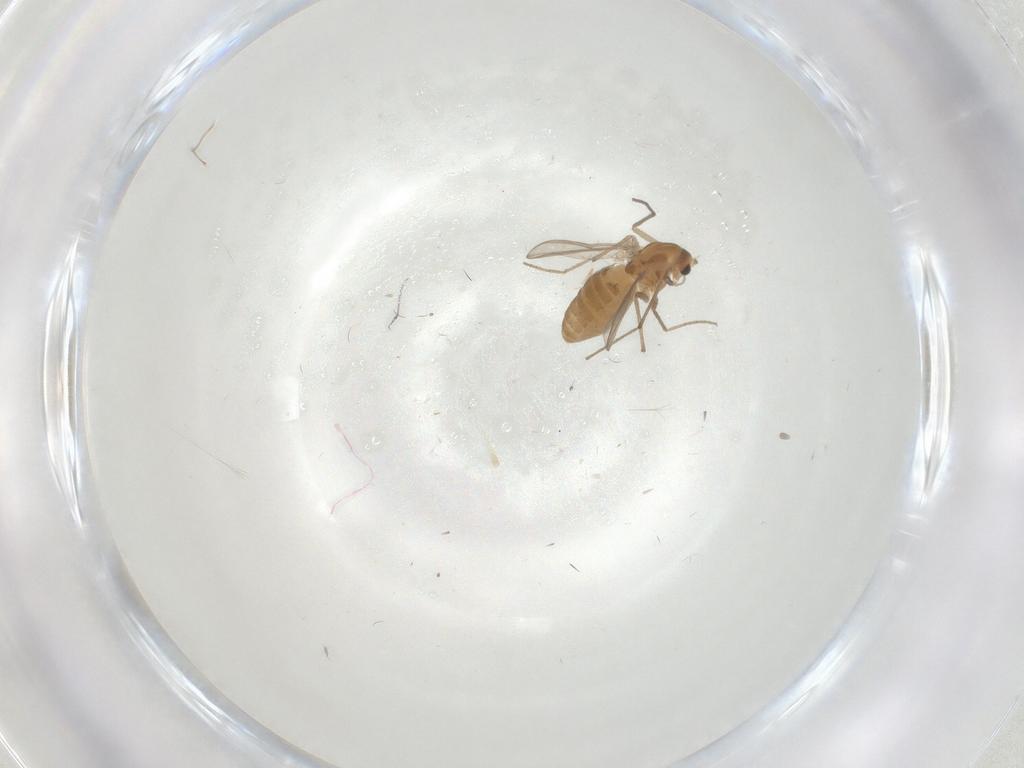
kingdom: Animalia
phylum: Arthropoda
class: Insecta
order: Diptera
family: Chironomidae
